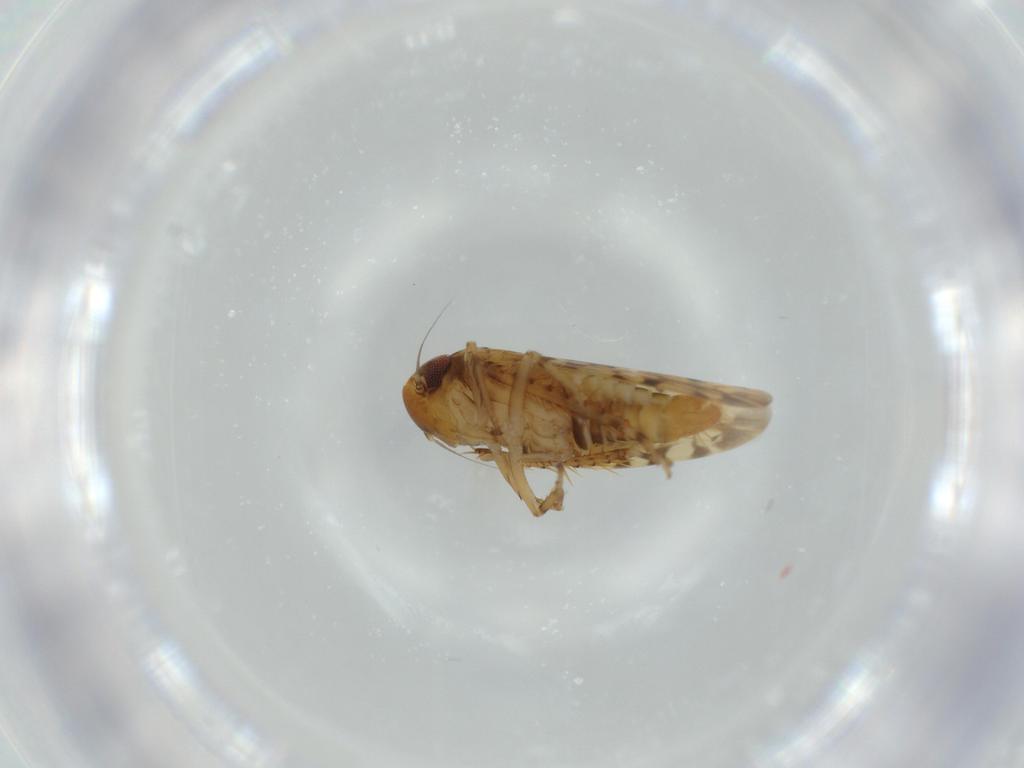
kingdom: Animalia
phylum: Arthropoda
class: Insecta
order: Hemiptera
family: Cicadellidae
